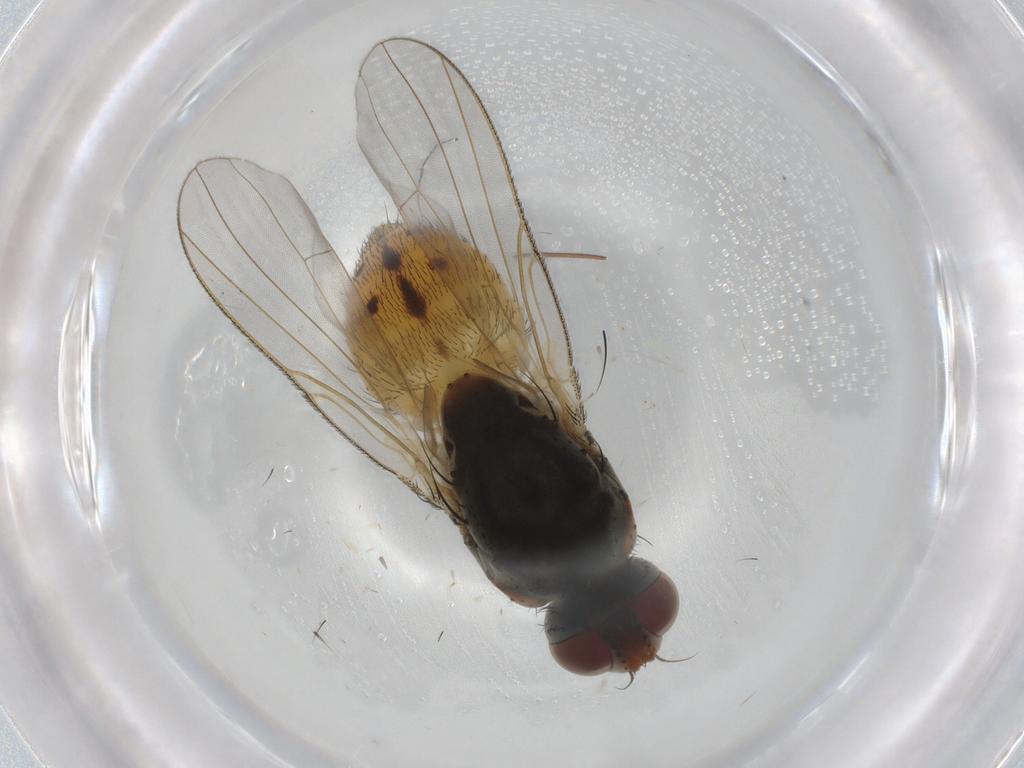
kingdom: Animalia
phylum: Arthropoda
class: Insecta
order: Diptera
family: Muscidae
